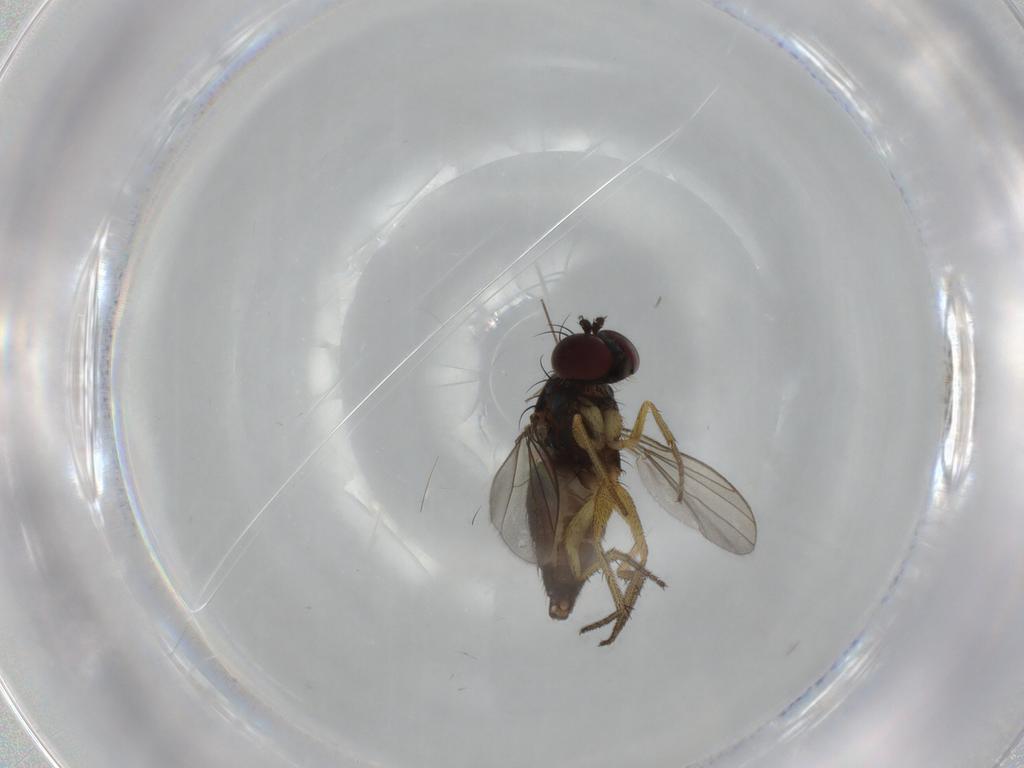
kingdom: Animalia
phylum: Arthropoda
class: Insecta
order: Diptera
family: Dolichopodidae
